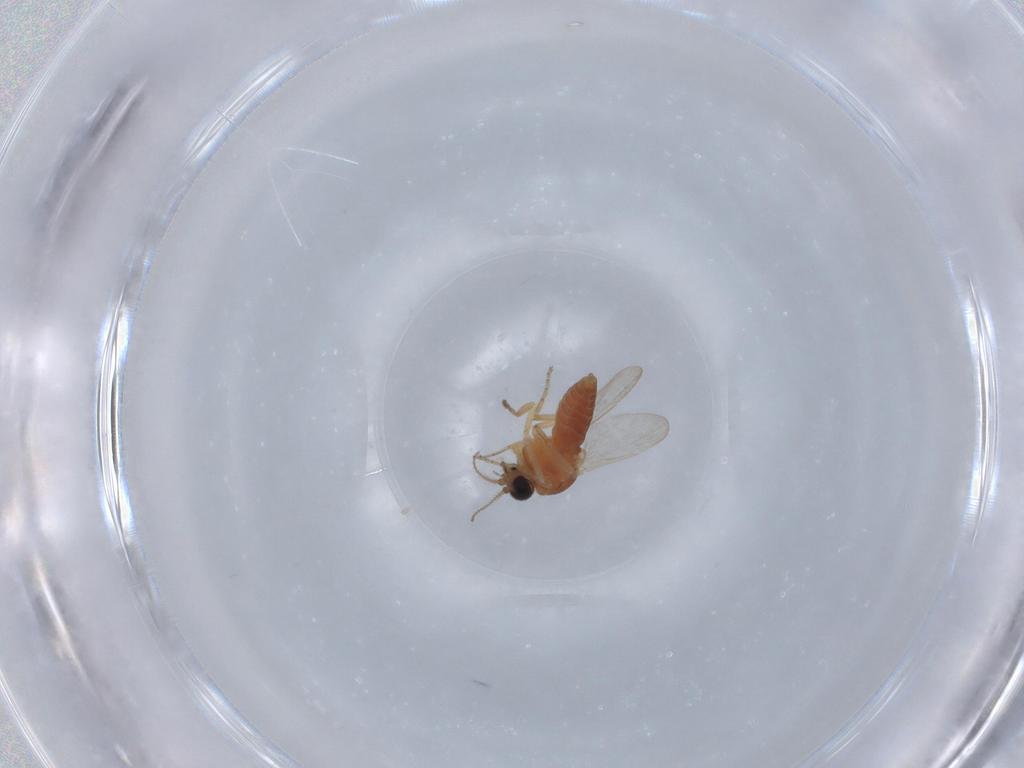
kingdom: Animalia
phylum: Arthropoda
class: Insecta
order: Diptera
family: Ceratopogonidae
